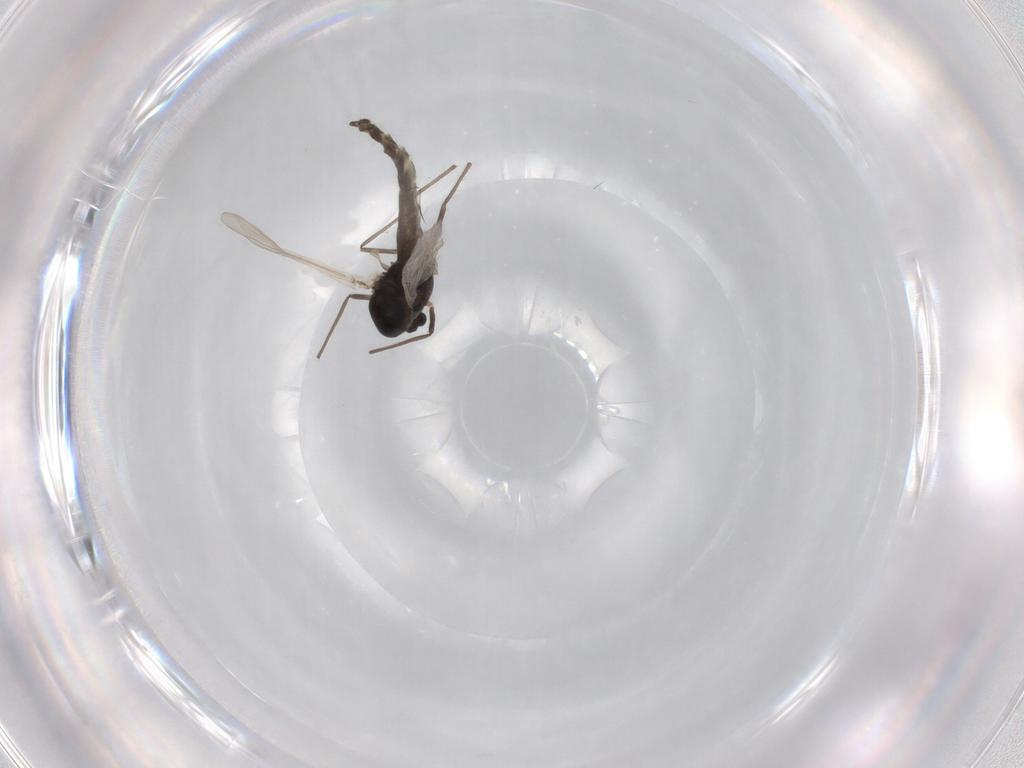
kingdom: Animalia
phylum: Arthropoda
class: Insecta
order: Diptera
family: Chironomidae
